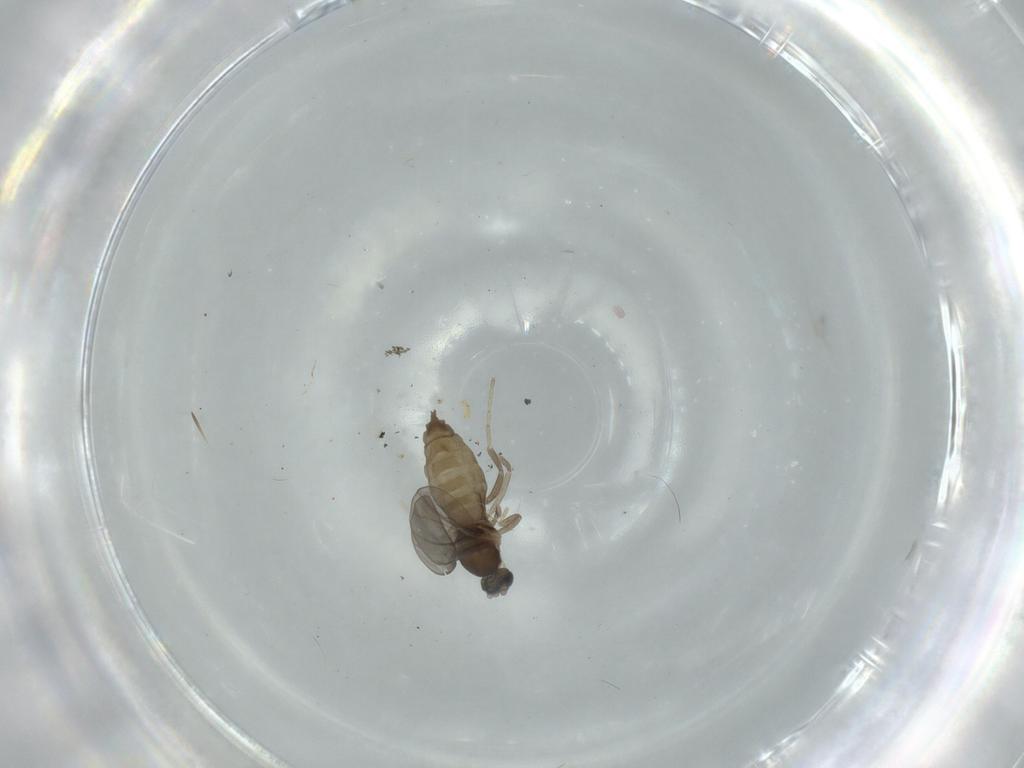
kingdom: Animalia
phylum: Arthropoda
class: Insecta
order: Diptera
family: Cecidomyiidae
